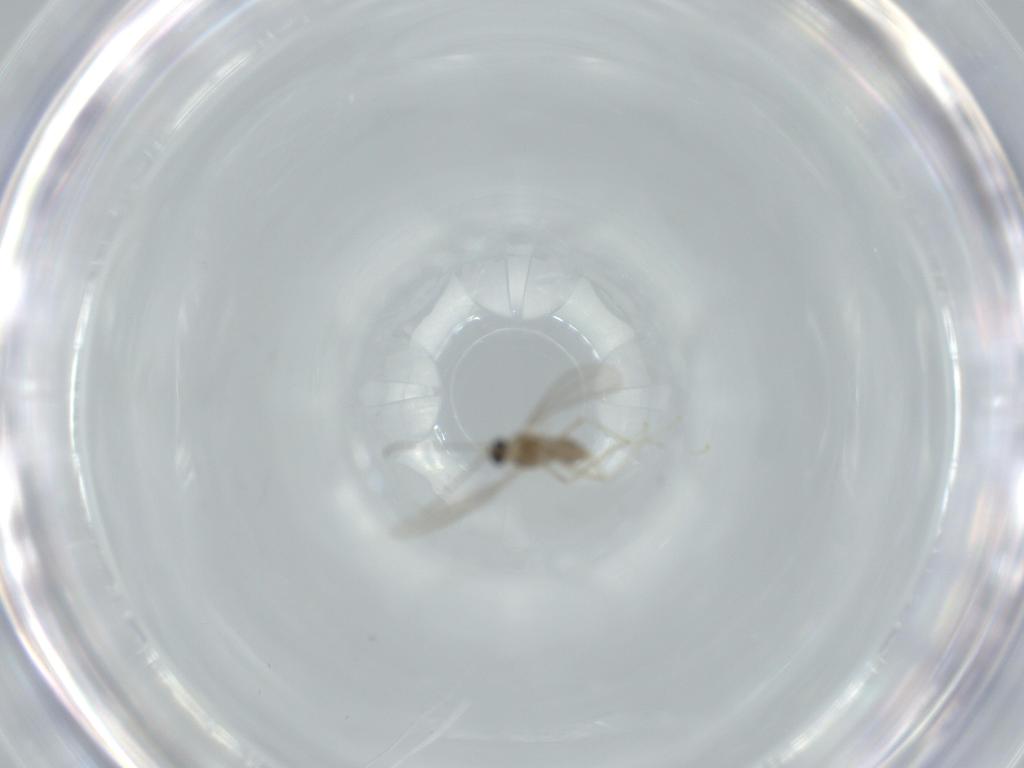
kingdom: Animalia
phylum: Arthropoda
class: Insecta
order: Diptera
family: Cecidomyiidae
